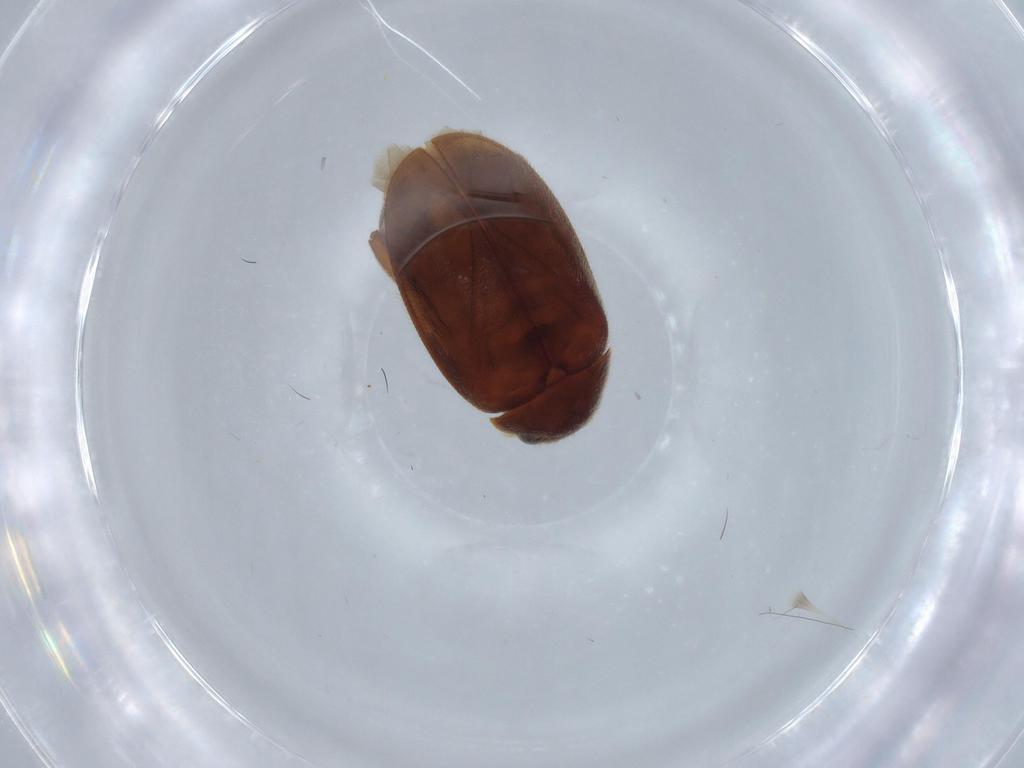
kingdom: Animalia
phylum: Arthropoda
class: Insecta
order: Coleoptera
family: Scirtidae
